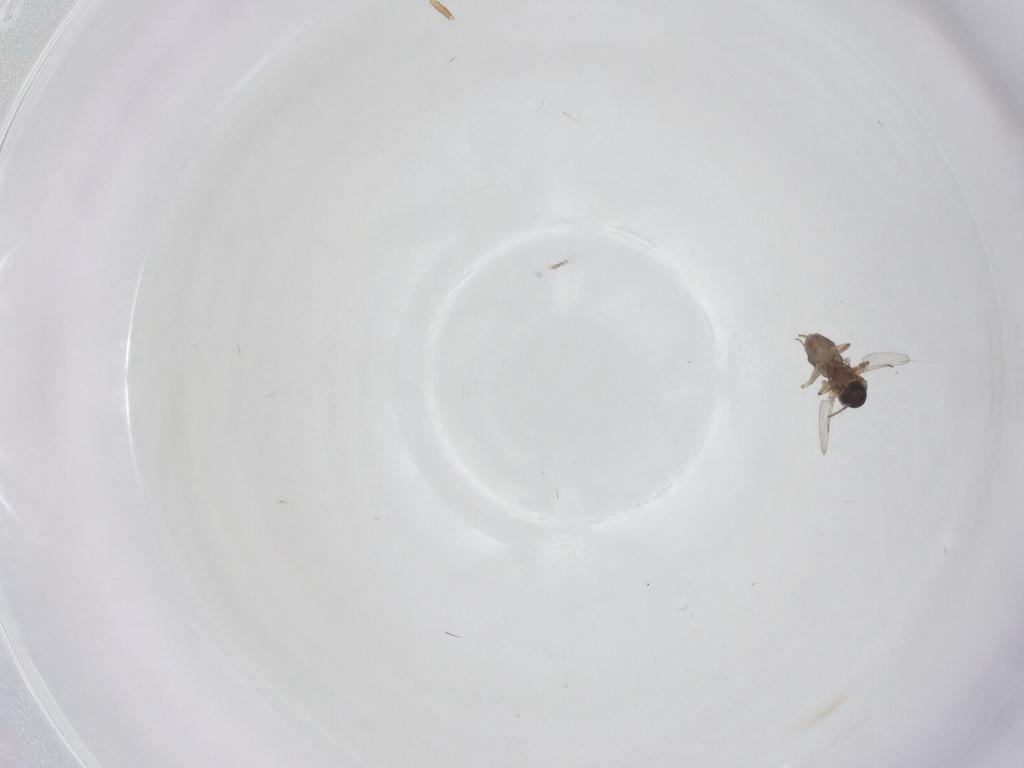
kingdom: Animalia
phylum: Arthropoda
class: Insecta
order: Diptera
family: Ceratopogonidae
